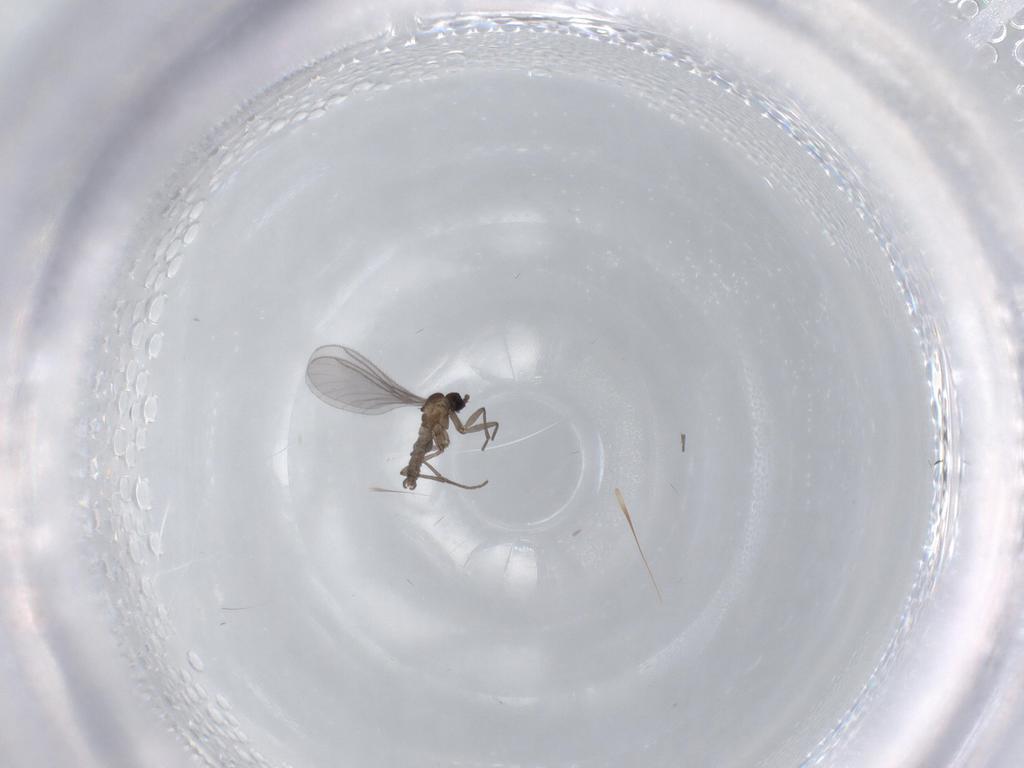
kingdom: Animalia
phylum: Arthropoda
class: Insecta
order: Diptera
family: Sciaridae
